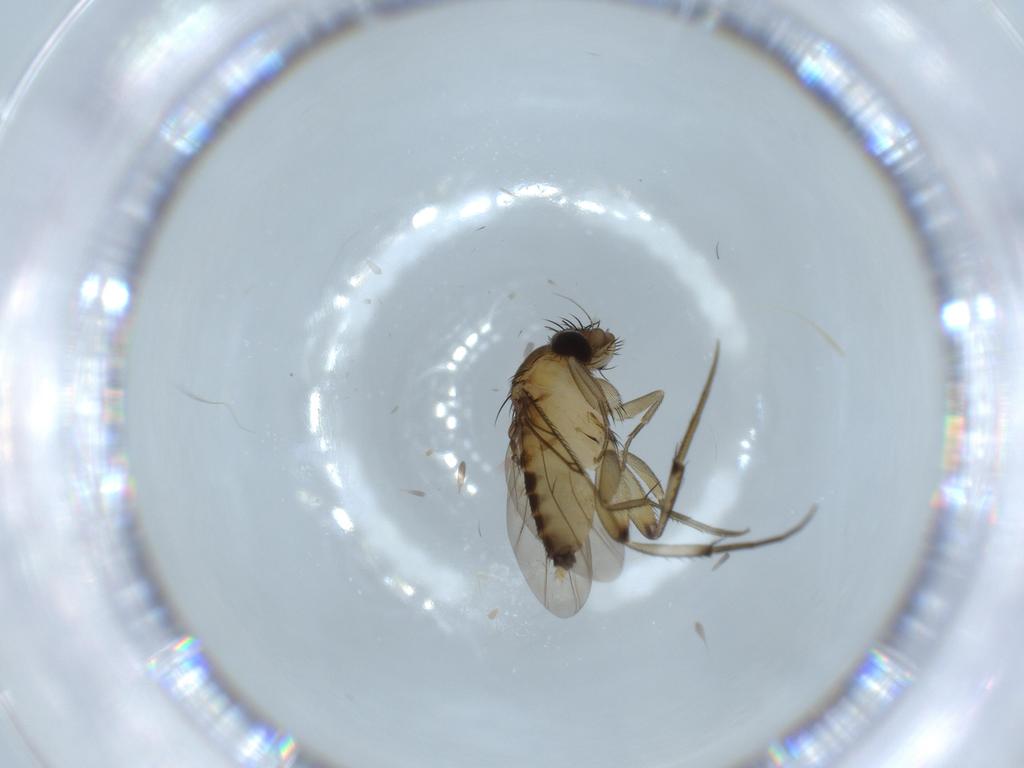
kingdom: Animalia
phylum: Arthropoda
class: Insecta
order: Diptera
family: Phoridae
